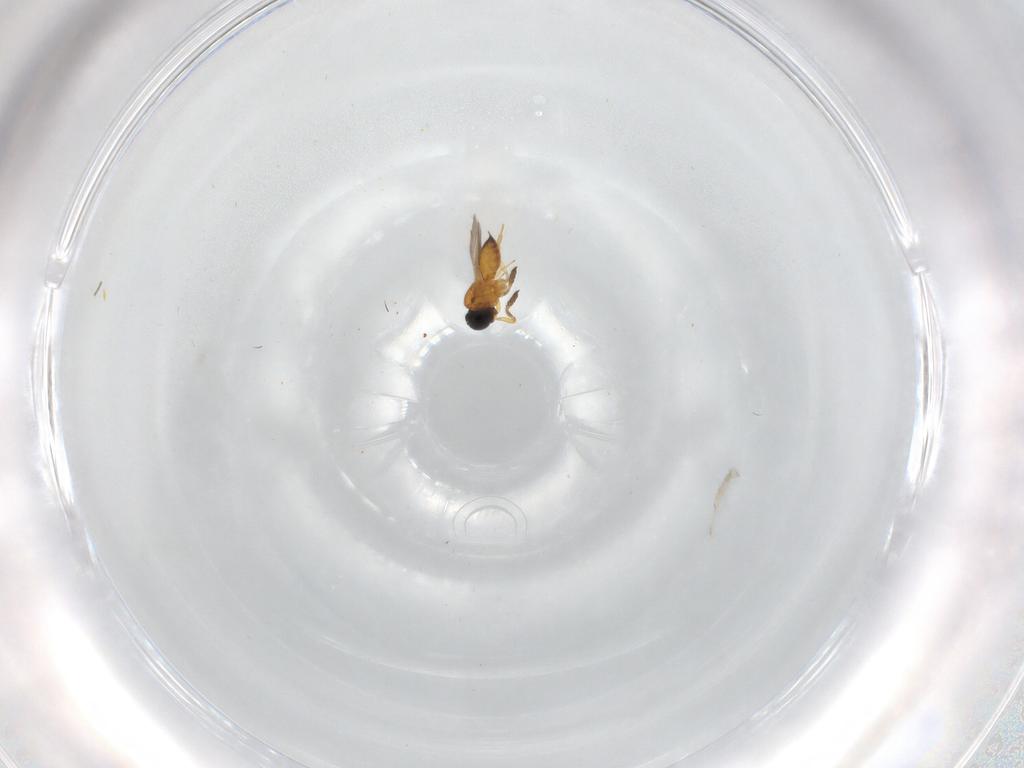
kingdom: Animalia
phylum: Arthropoda
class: Insecta
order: Hymenoptera
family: Scelionidae
